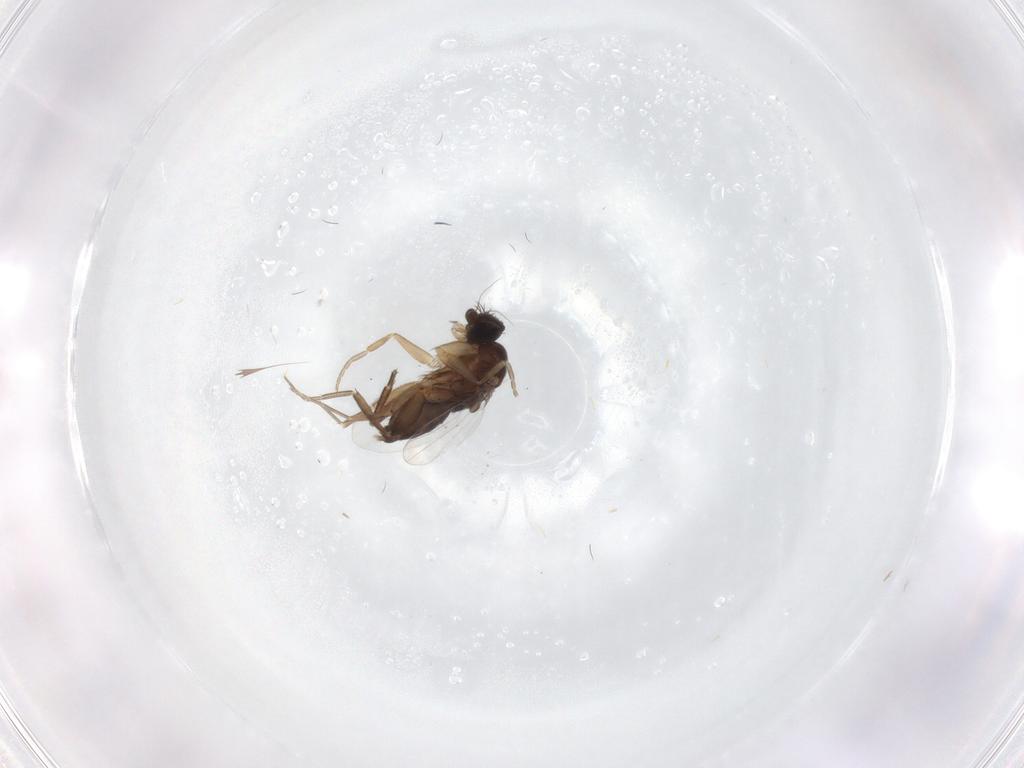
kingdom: Animalia
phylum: Arthropoda
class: Insecta
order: Diptera
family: Phoridae
